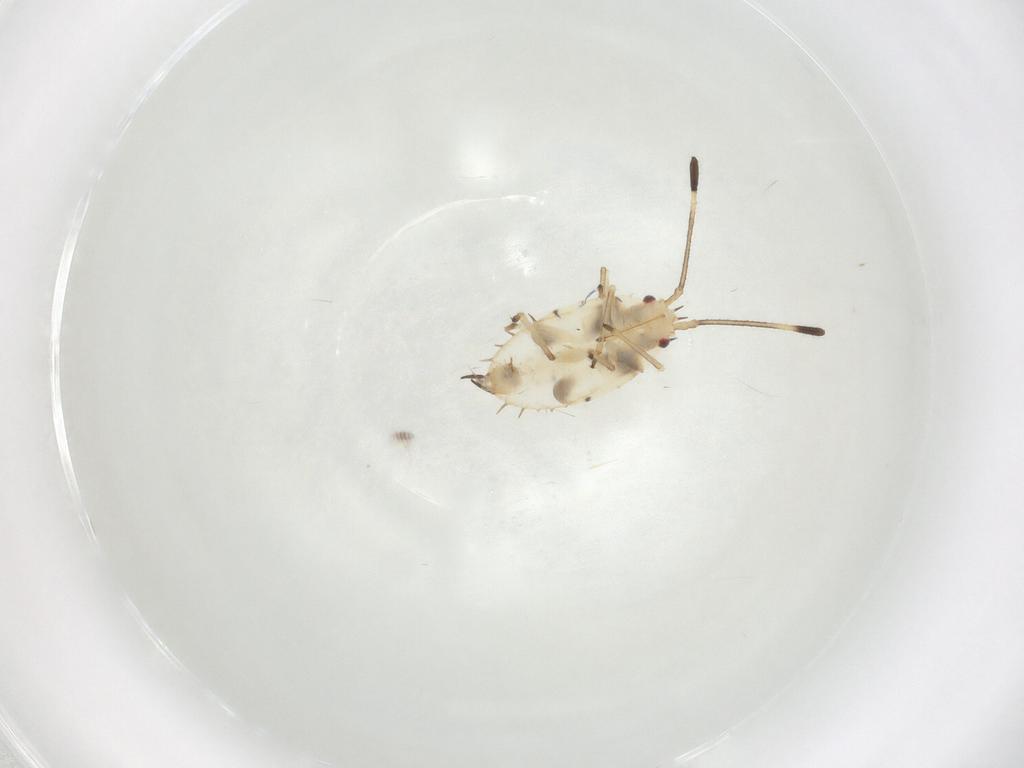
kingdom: Animalia
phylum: Arthropoda
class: Insecta
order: Hemiptera
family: Tingidae
